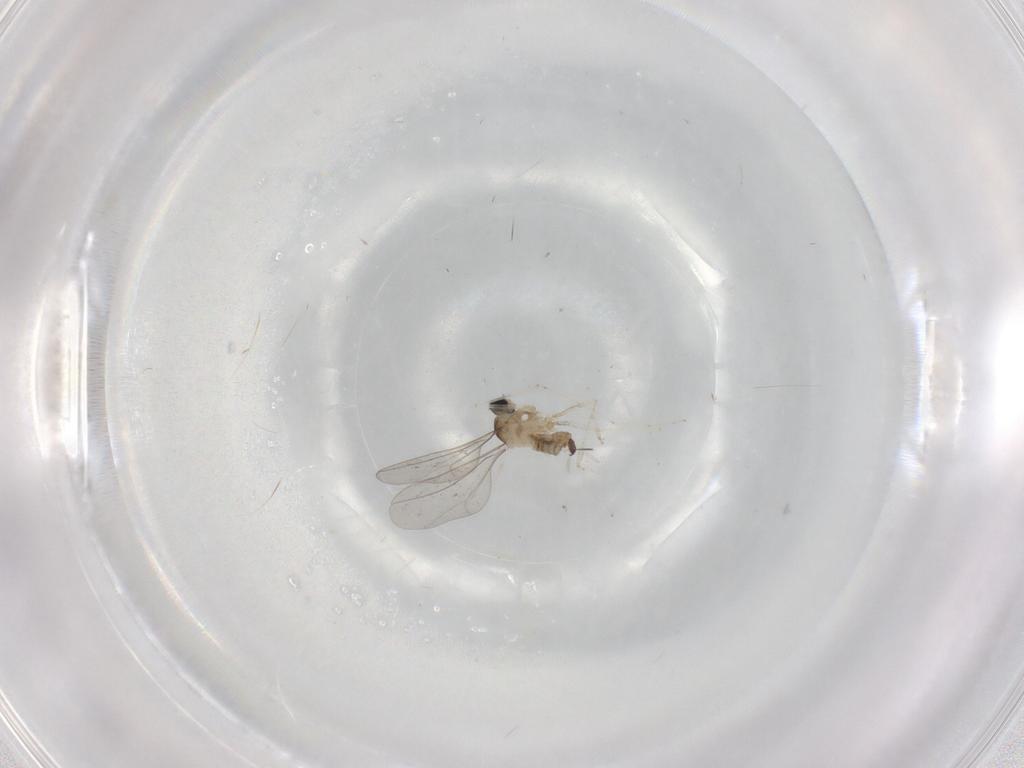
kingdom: Animalia
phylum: Arthropoda
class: Insecta
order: Diptera
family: Cecidomyiidae
